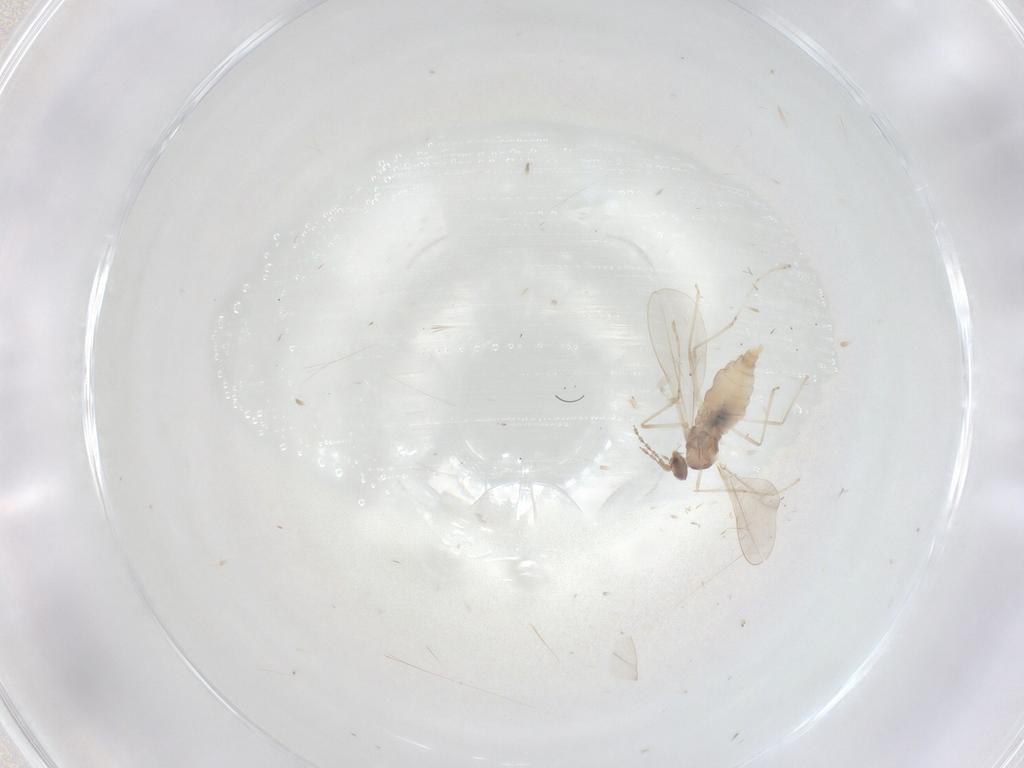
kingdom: Animalia
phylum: Arthropoda
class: Insecta
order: Diptera
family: Cecidomyiidae
